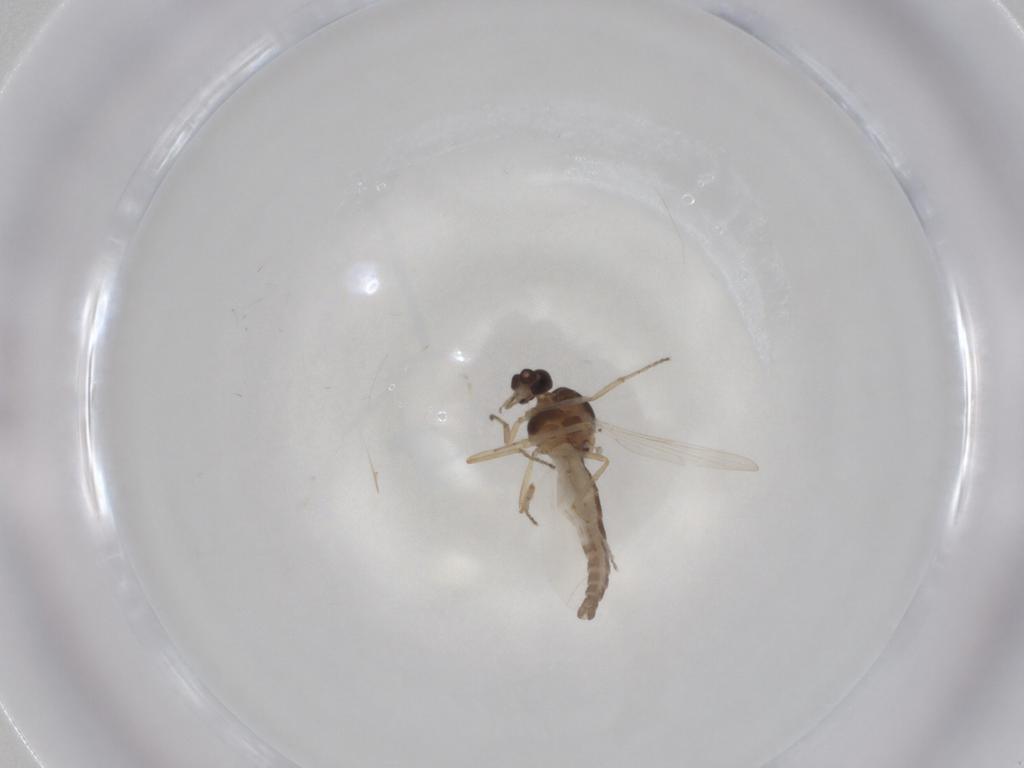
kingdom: Animalia
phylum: Arthropoda
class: Insecta
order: Diptera
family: Ceratopogonidae
